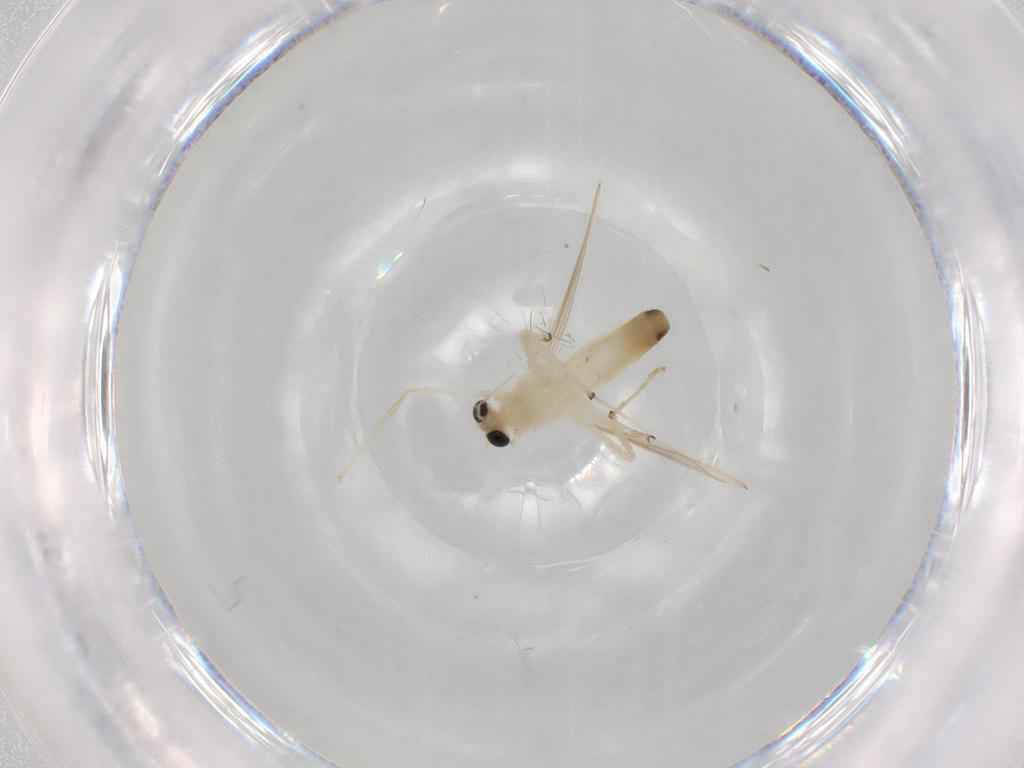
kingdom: Animalia
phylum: Arthropoda
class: Insecta
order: Diptera
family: Chironomidae
